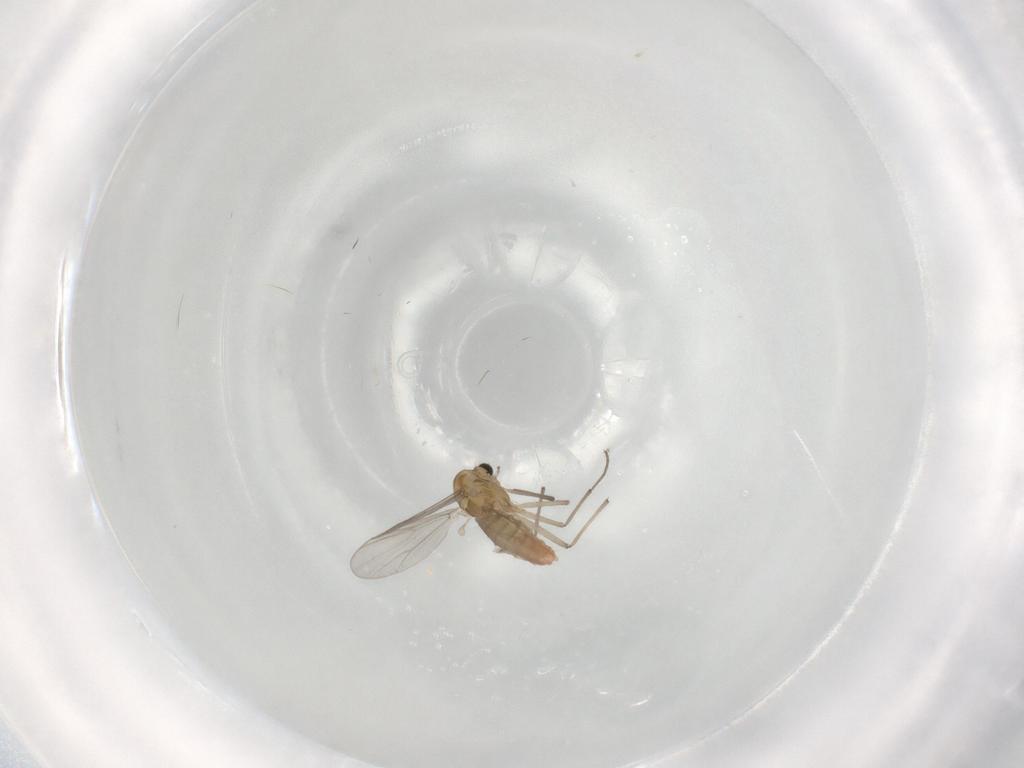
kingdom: Animalia
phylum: Arthropoda
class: Insecta
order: Diptera
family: Chironomidae
